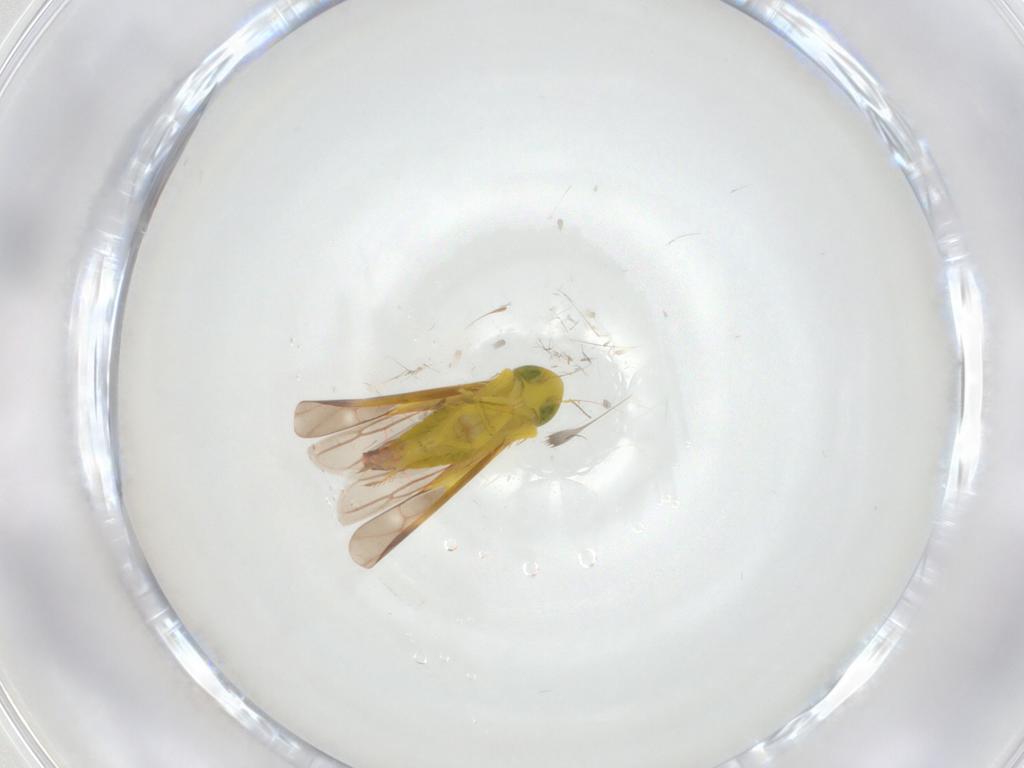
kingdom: Animalia
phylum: Arthropoda
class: Insecta
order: Hemiptera
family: Cicadellidae
